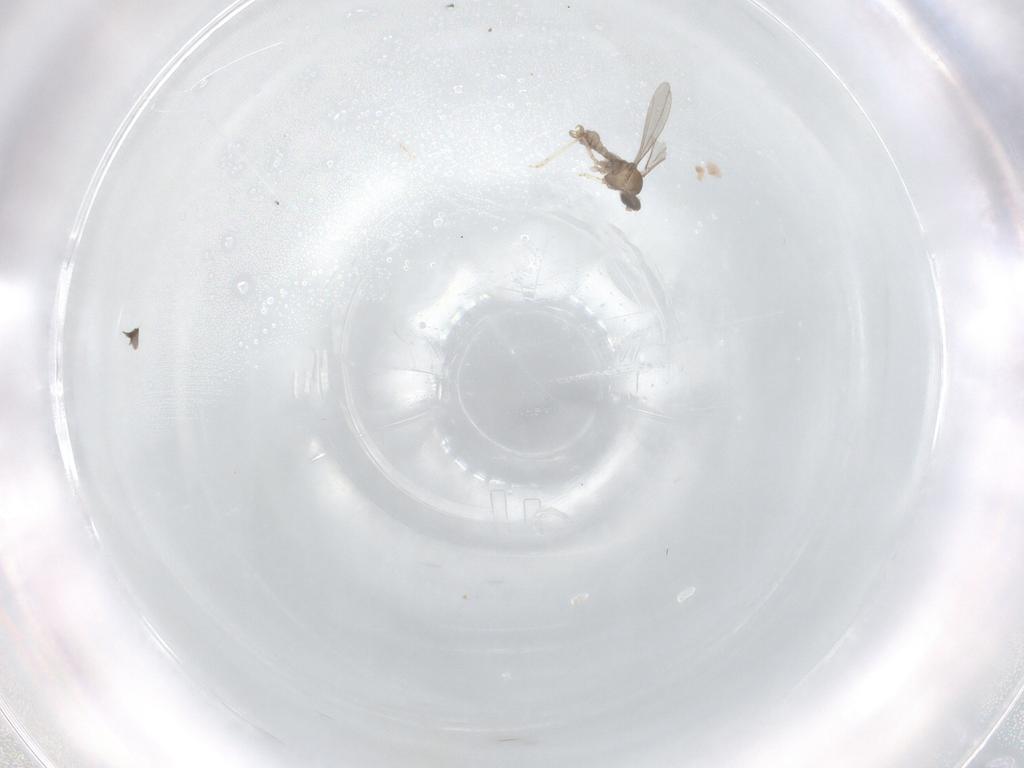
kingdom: Animalia
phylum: Arthropoda
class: Insecta
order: Diptera
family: Cecidomyiidae
